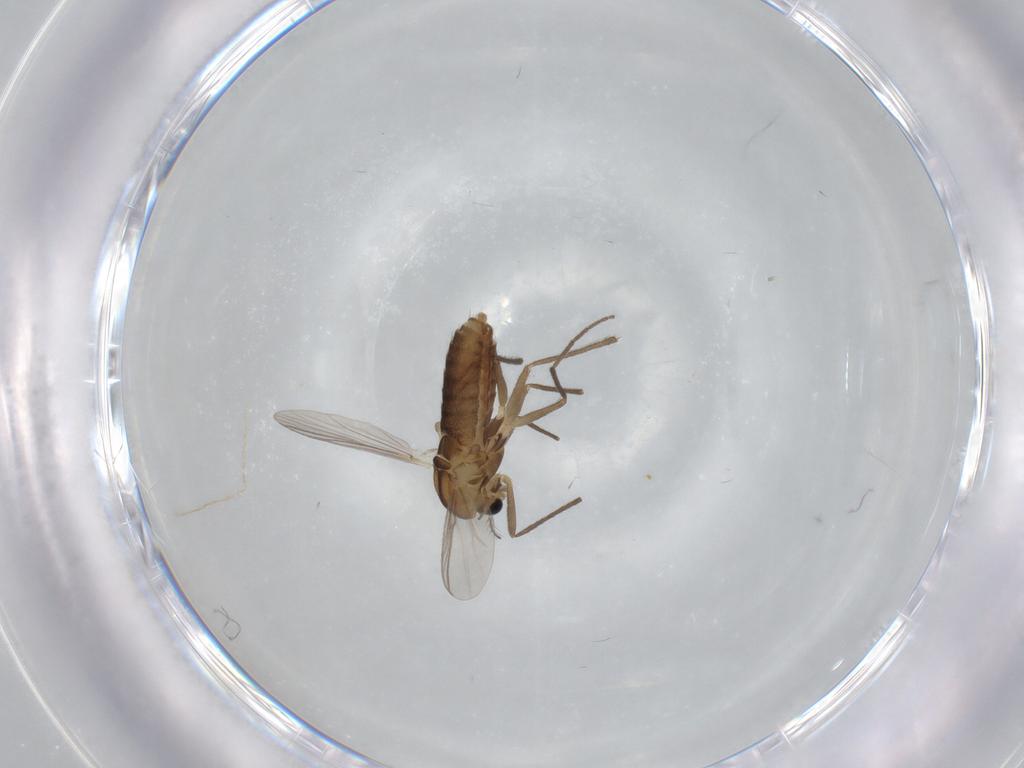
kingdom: Animalia
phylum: Arthropoda
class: Insecta
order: Diptera
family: Chironomidae
